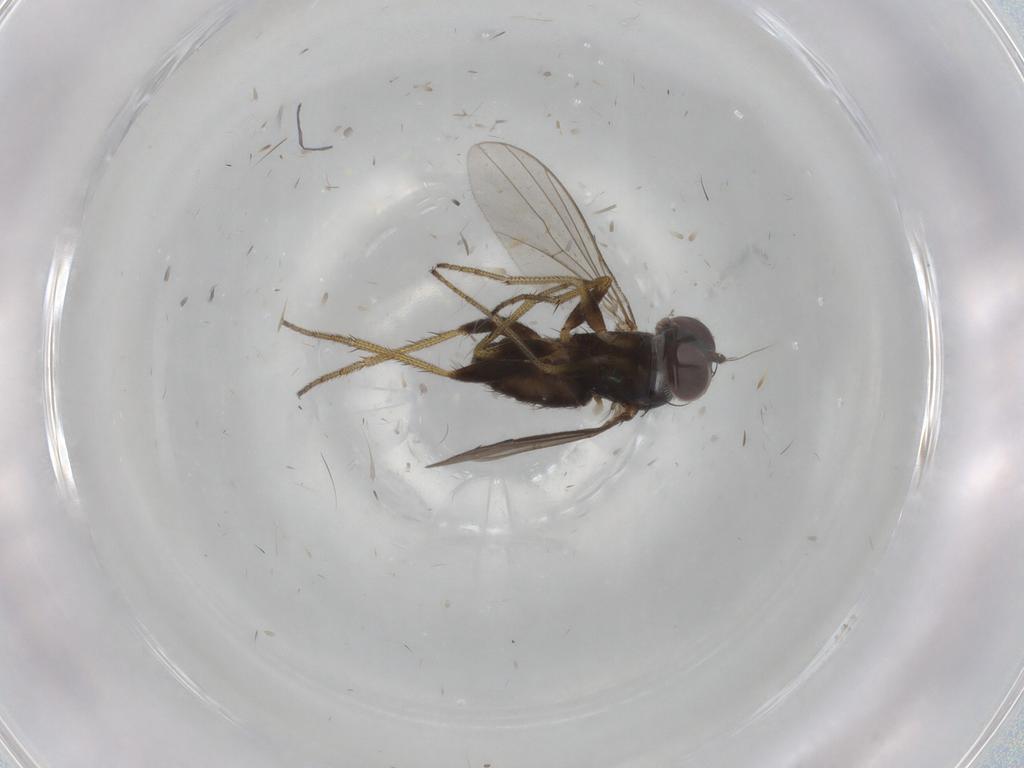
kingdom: Animalia
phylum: Arthropoda
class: Insecta
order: Diptera
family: Cecidomyiidae
